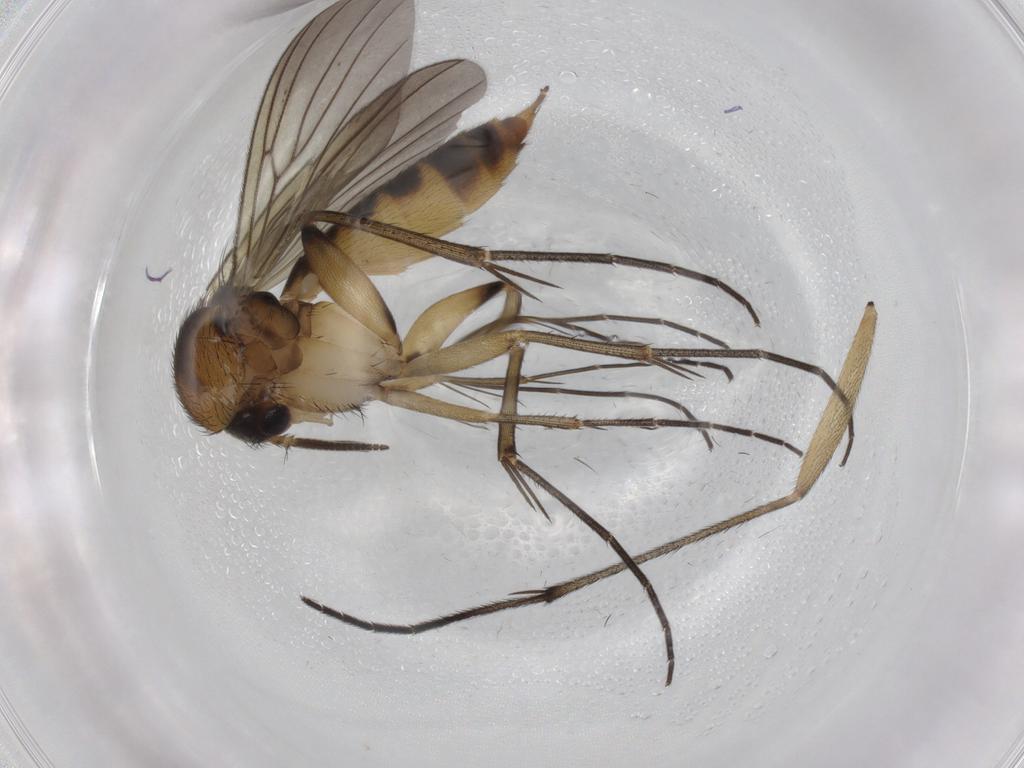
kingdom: Animalia
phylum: Arthropoda
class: Insecta
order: Diptera
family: Mycetophilidae
